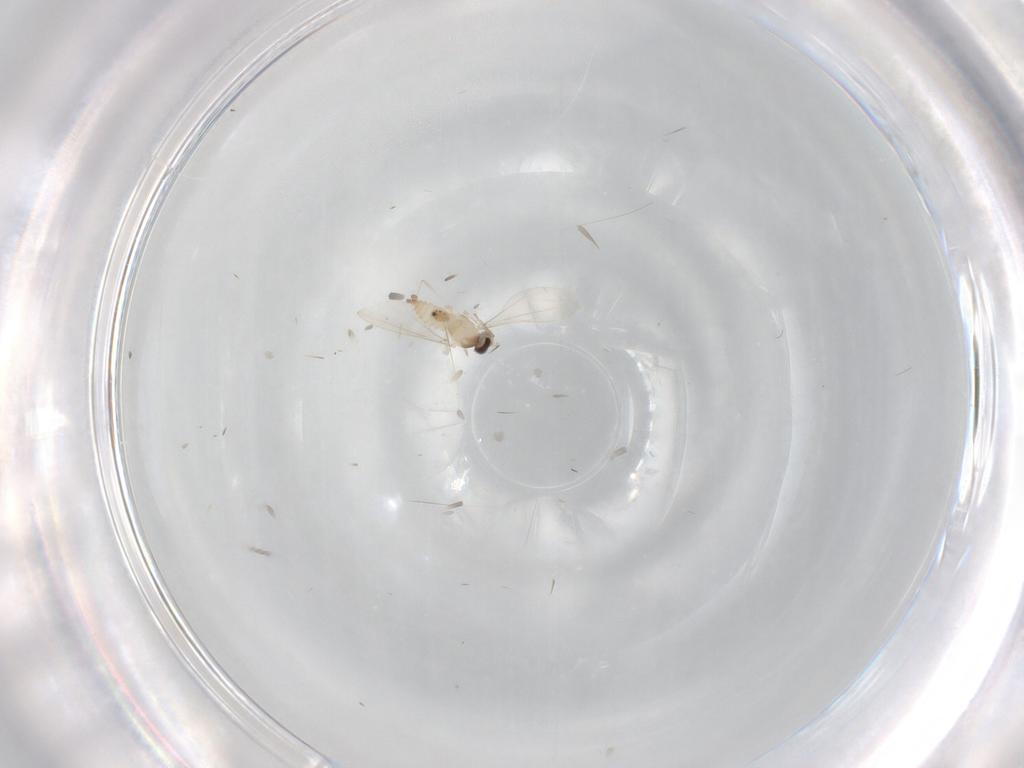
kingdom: Animalia
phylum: Arthropoda
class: Insecta
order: Diptera
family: Cecidomyiidae
